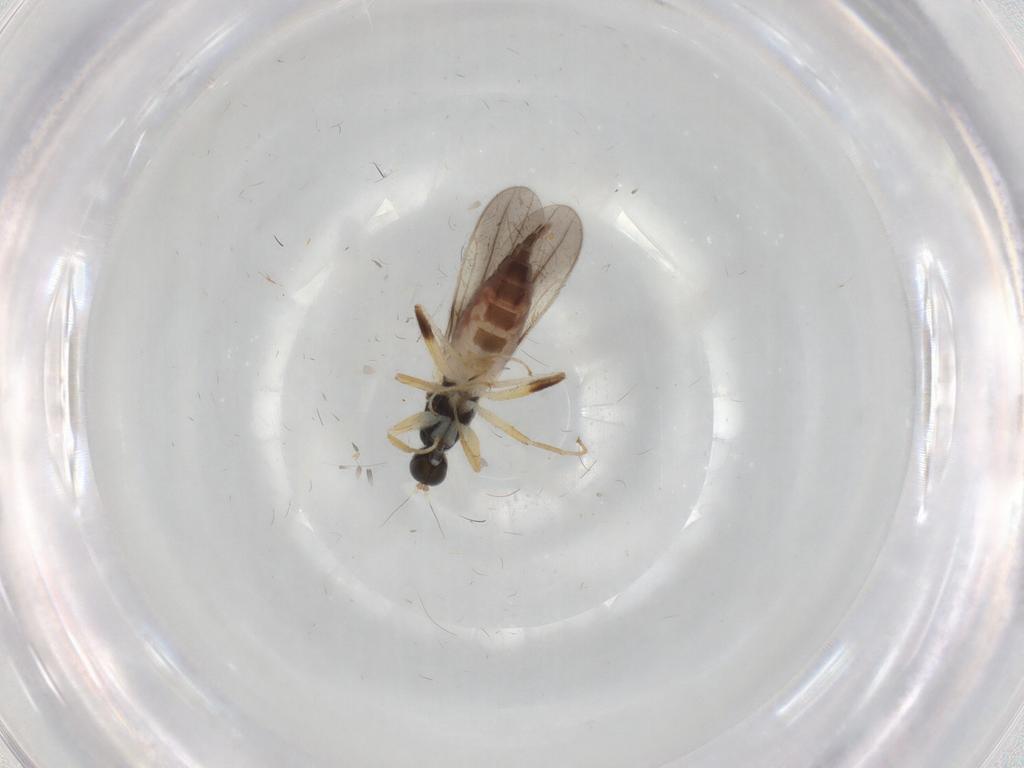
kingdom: Animalia
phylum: Arthropoda
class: Insecta
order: Diptera
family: Hybotidae
